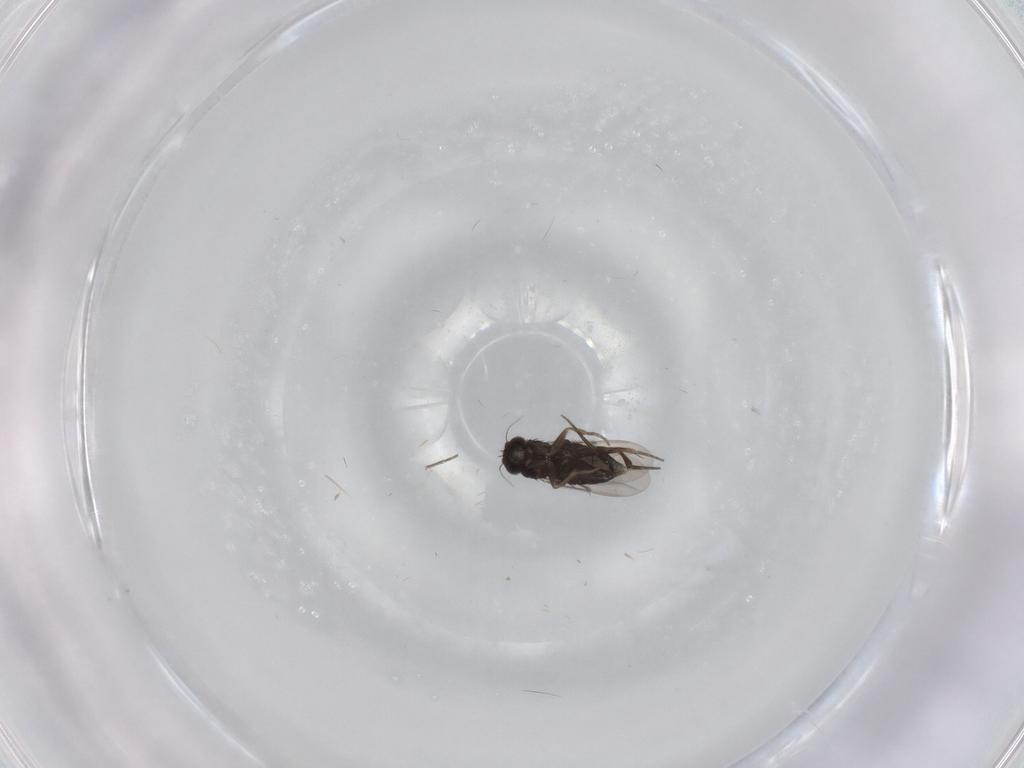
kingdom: Animalia
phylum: Arthropoda
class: Insecta
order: Diptera
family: Phoridae
